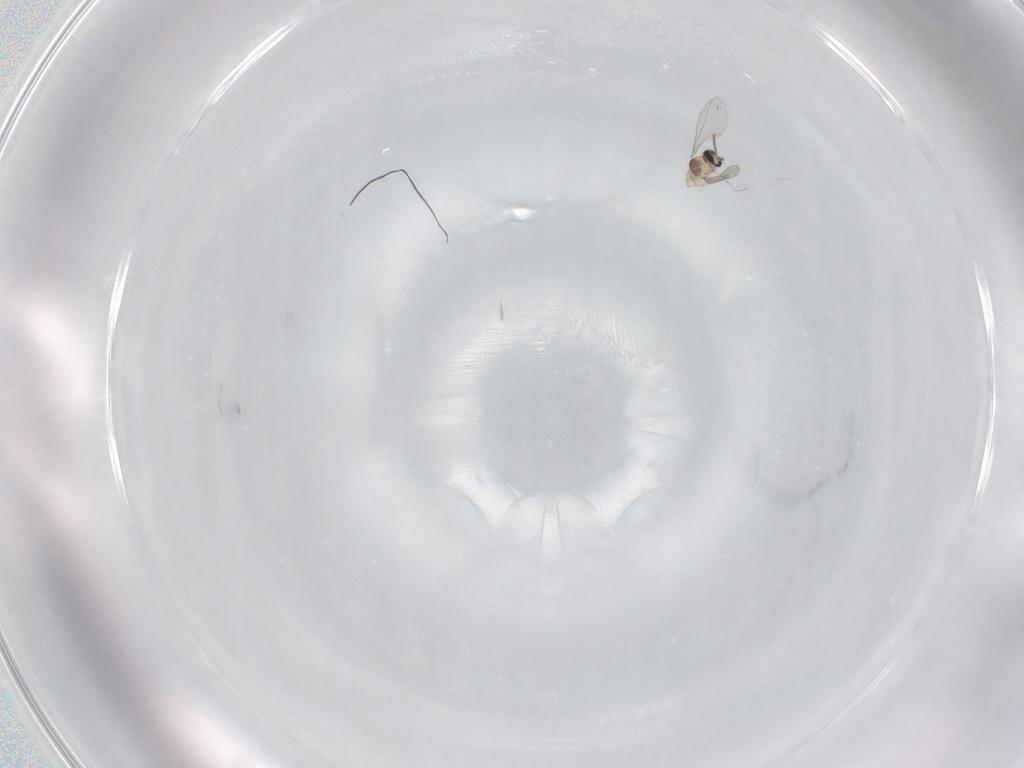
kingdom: Animalia
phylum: Arthropoda
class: Insecta
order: Diptera
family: Cecidomyiidae
